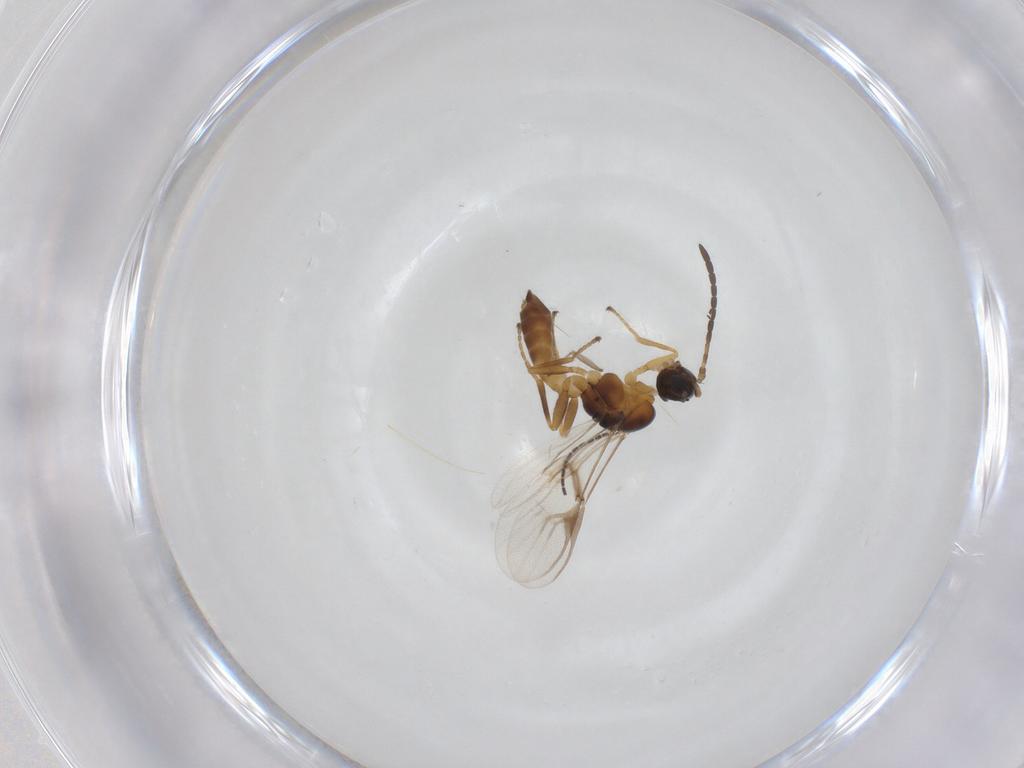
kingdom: Animalia
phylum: Arthropoda
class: Insecta
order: Hymenoptera
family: Braconidae
